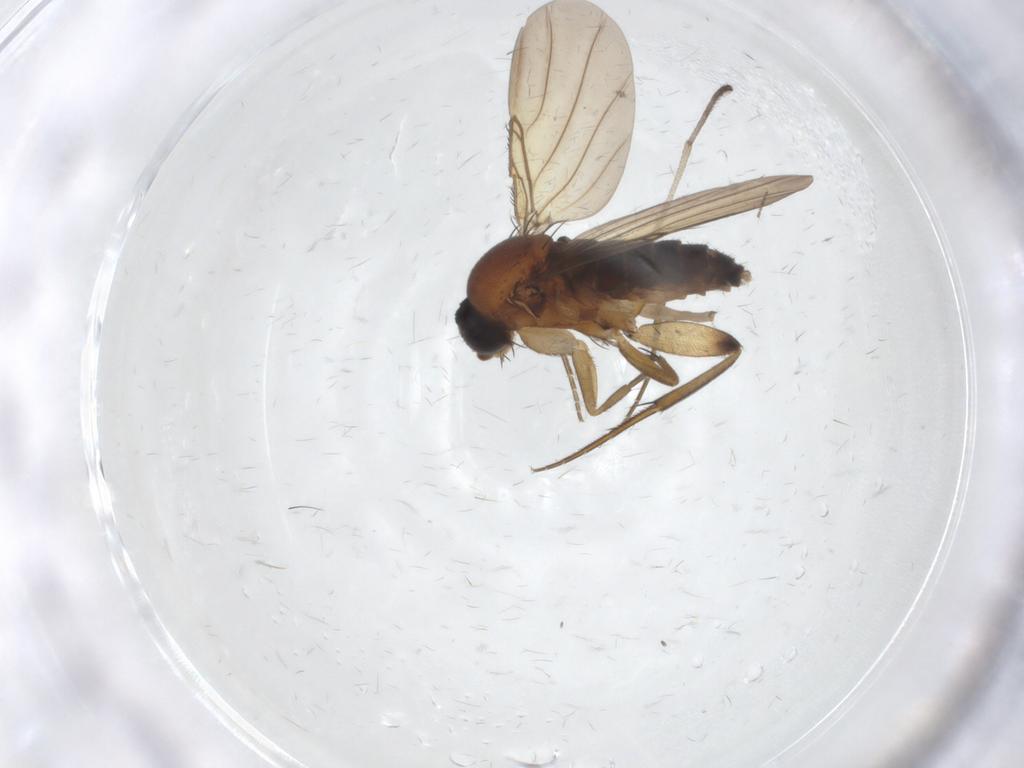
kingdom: Animalia
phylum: Arthropoda
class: Insecta
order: Diptera
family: Phoridae
